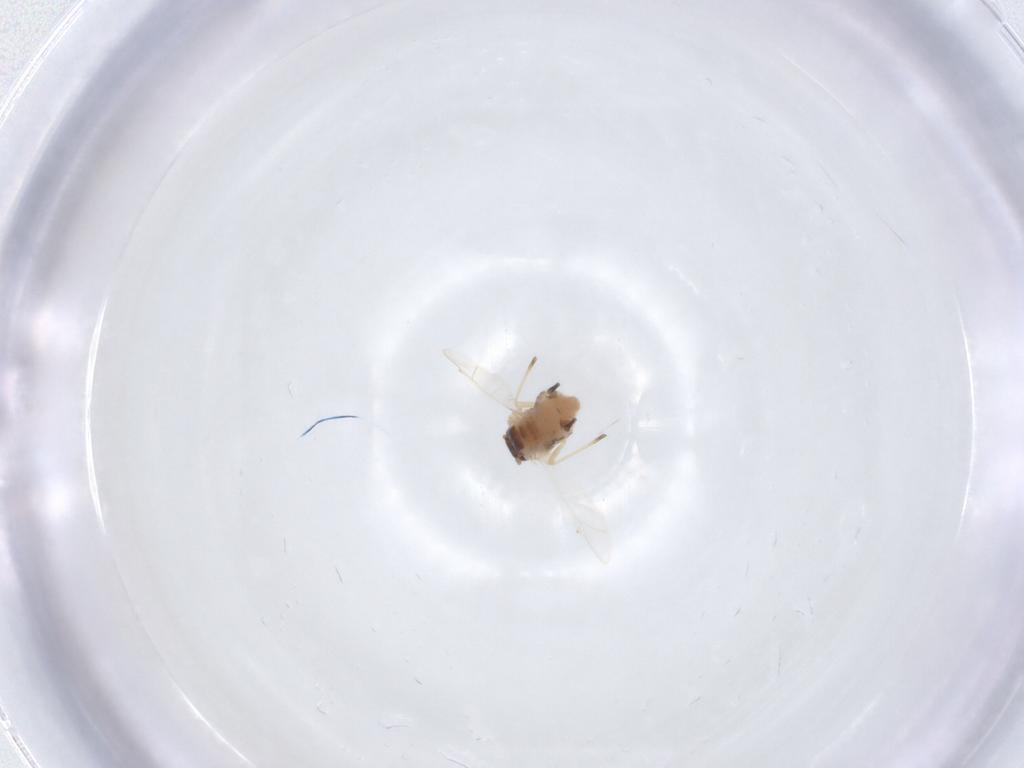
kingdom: Animalia
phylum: Arthropoda
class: Insecta
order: Hemiptera
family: Aphididae
